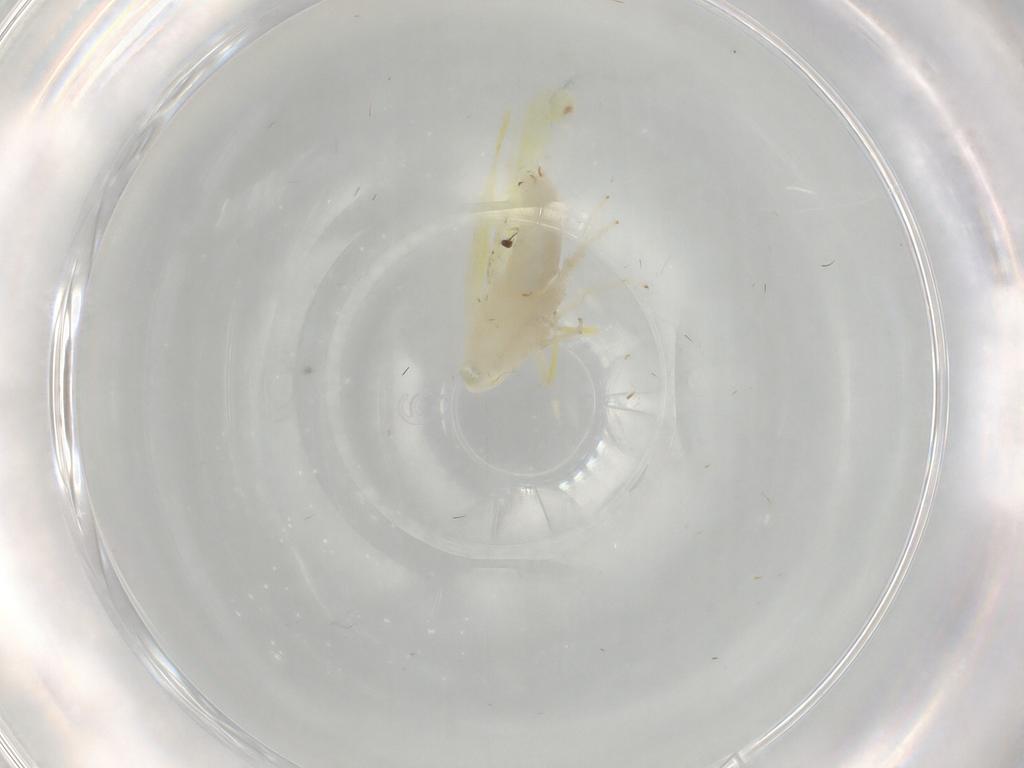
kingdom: Animalia
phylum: Arthropoda
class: Insecta
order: Hemiptera
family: Cicadellidae
